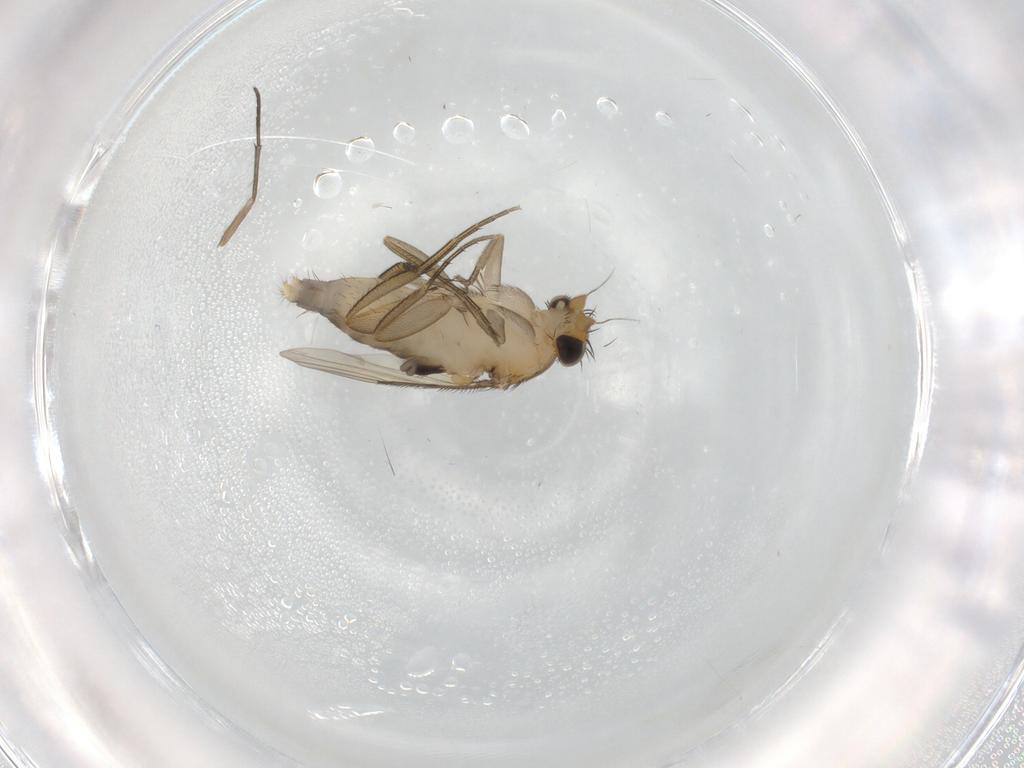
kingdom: Animalia
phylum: Arthropoda
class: Insecta
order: Diptera
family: Phoridae
